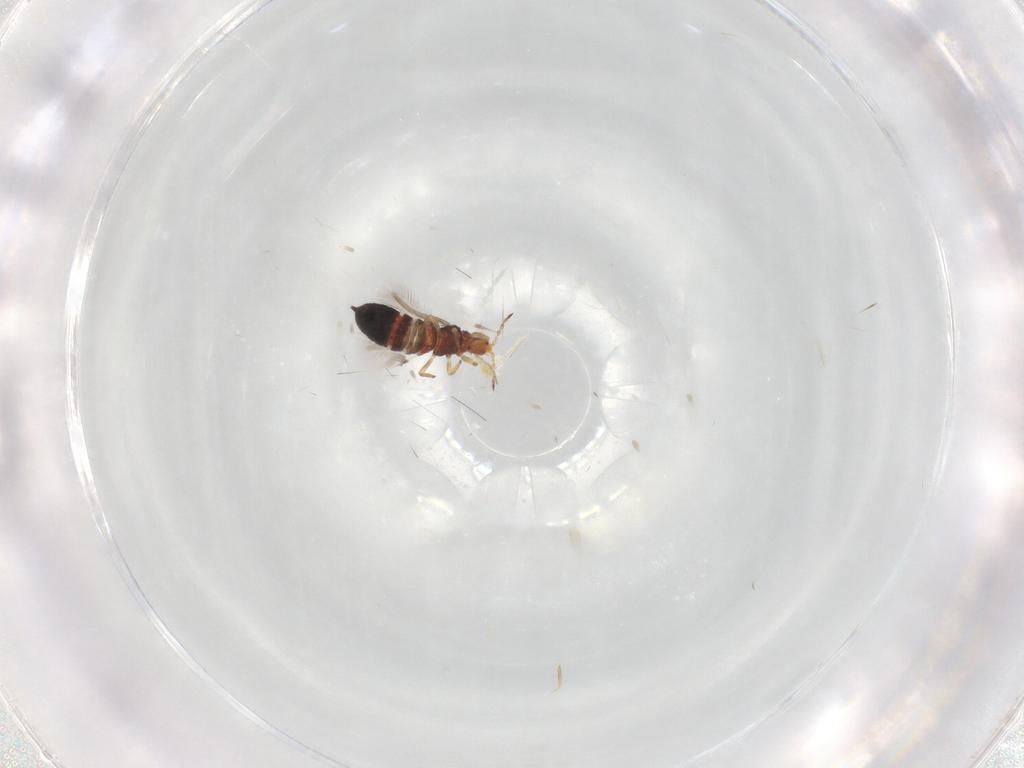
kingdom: Animalia
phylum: Arthropoda
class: Insecta
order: Thysanoptera
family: Phlaeothripidae
